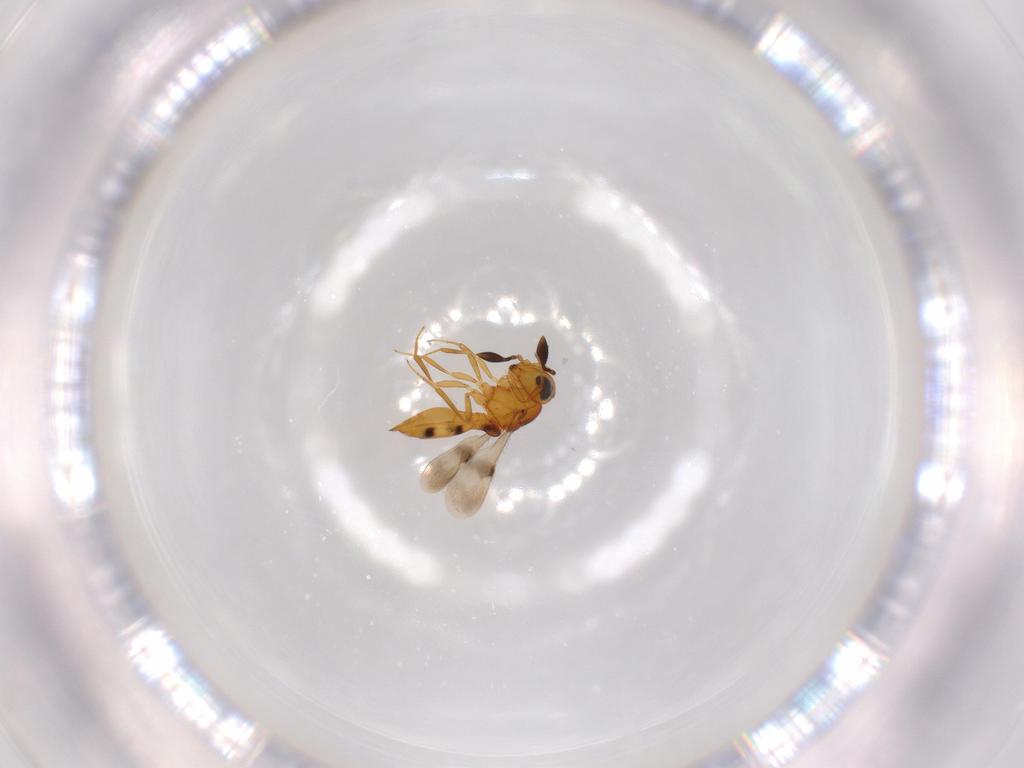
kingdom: Animalia
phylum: Arthropoda
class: Insecta
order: Hymenoptera
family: Scelionidae
